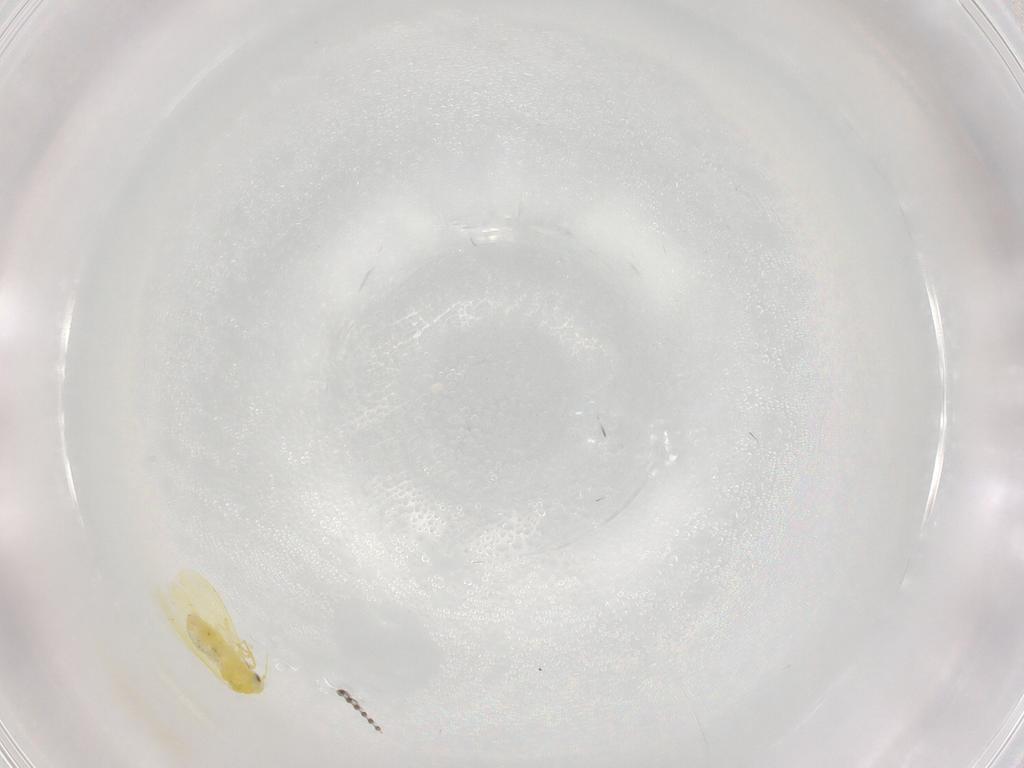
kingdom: Animalia
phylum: Arthropoda
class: Insecta
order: Hemiptera
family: Aleyrodidae
